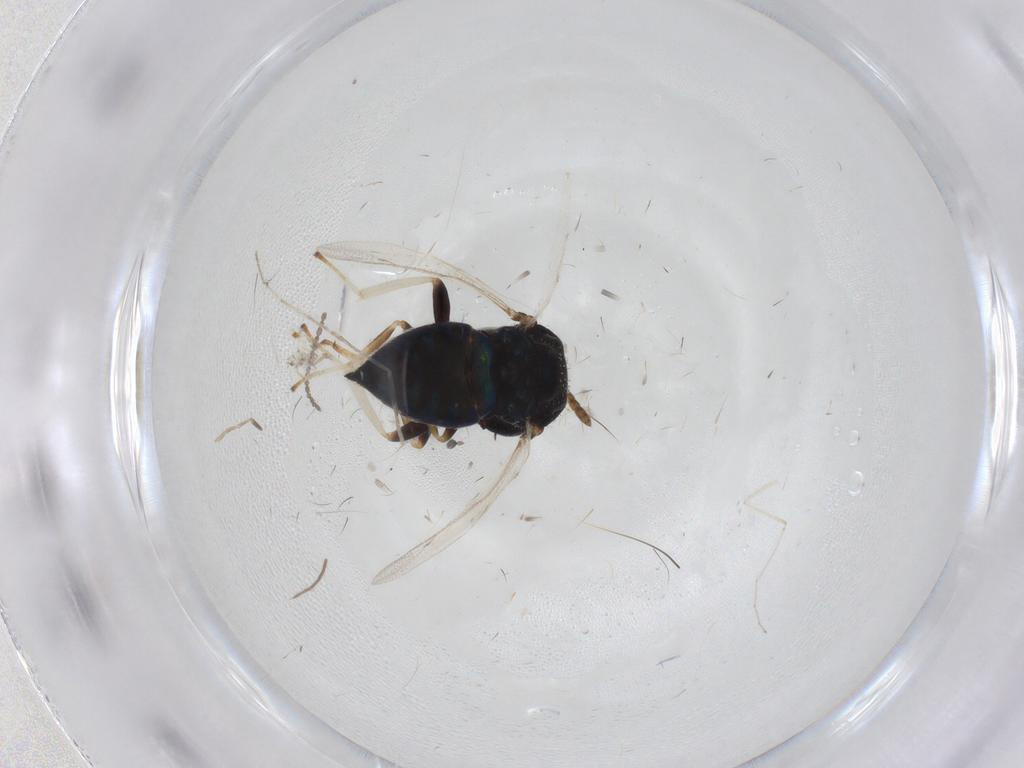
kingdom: Animalia
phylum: Arthropoda
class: Insecta
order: Hymenoptera
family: Pteromalidae
